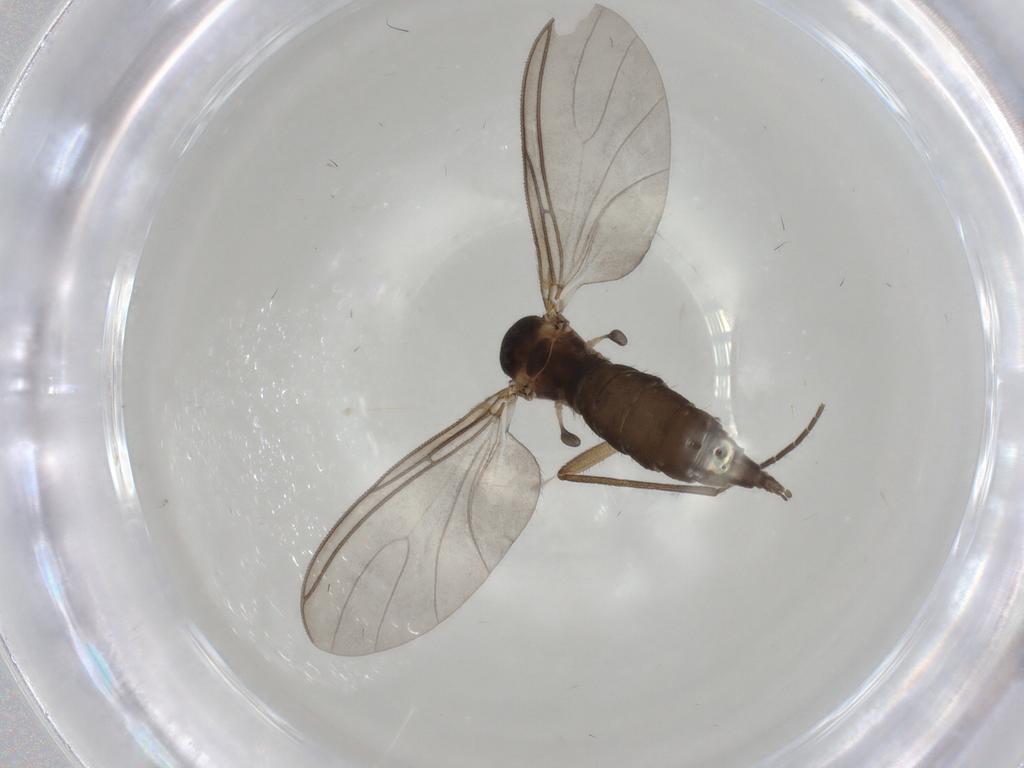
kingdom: Animalia
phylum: Arthropoda
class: Insecta
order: Diptera
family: Sciaridae
